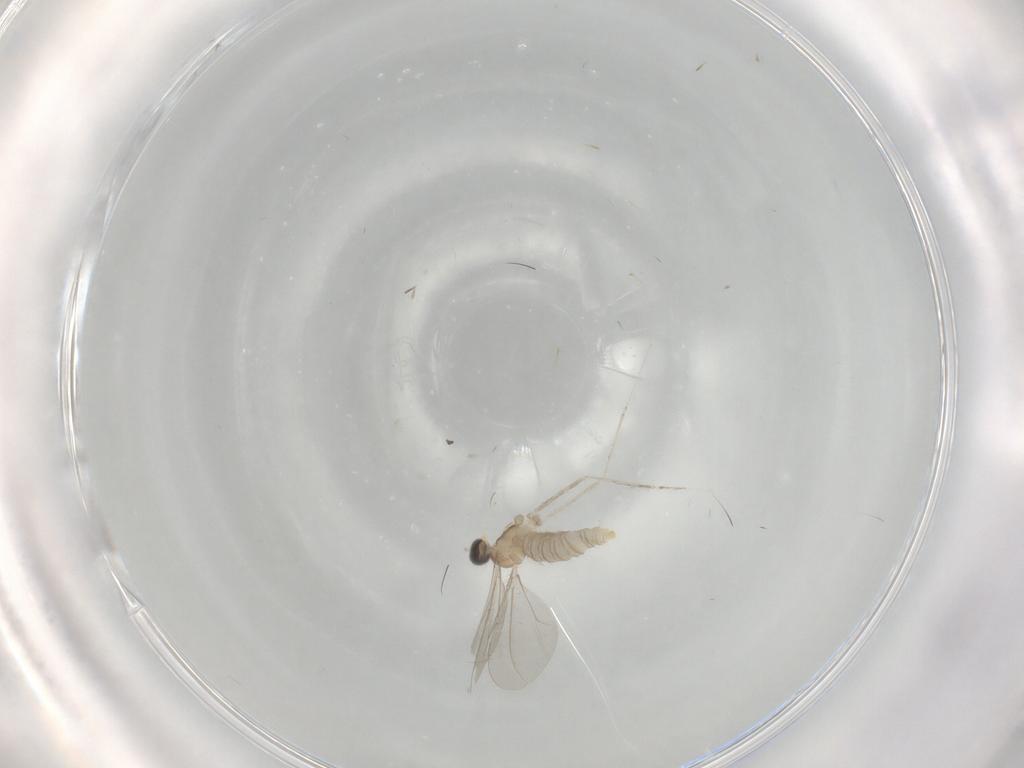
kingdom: Animalia
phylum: Arthropoda
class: Insecta
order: Diptera
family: Cecidomyiidae
